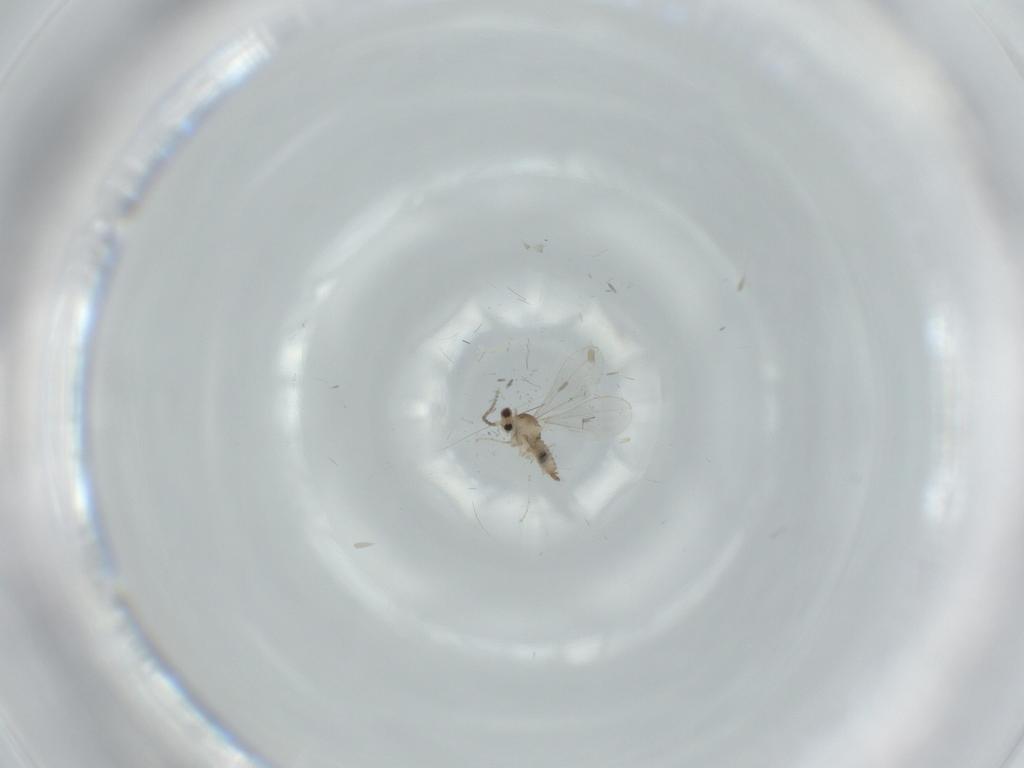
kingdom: Animalia
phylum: Arthropoda
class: Insecta
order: Diptera
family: Cecidomyiidae
